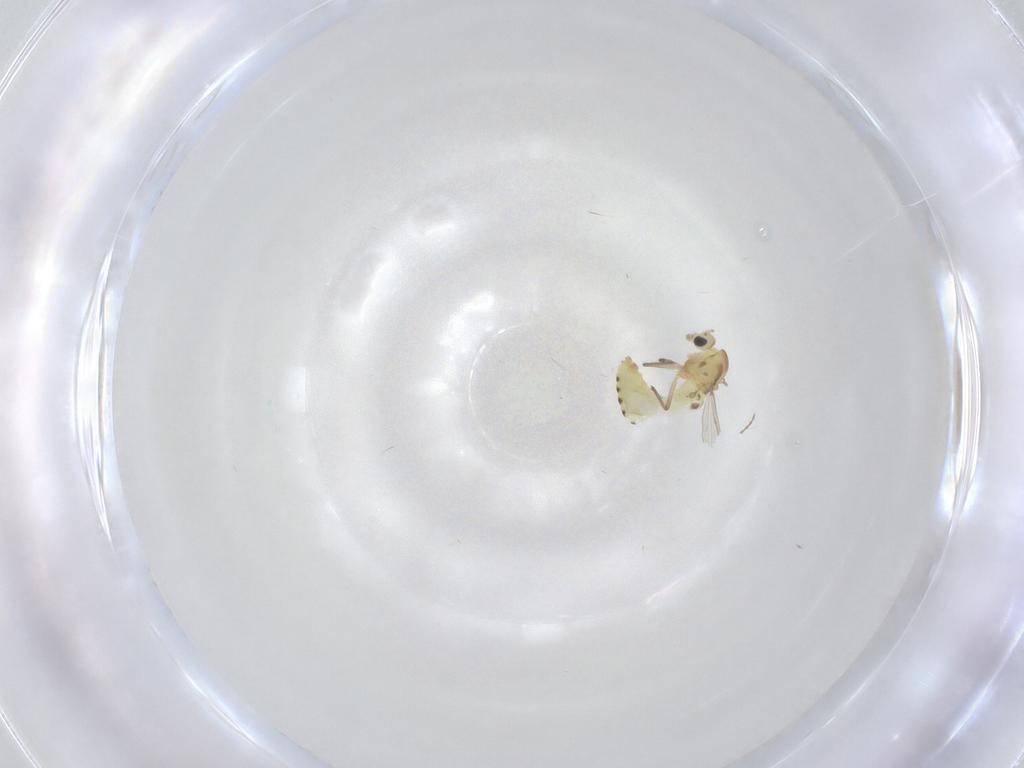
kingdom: Animalia
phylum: Arthropoda
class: Insecta
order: Diptera
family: Chironomidae
